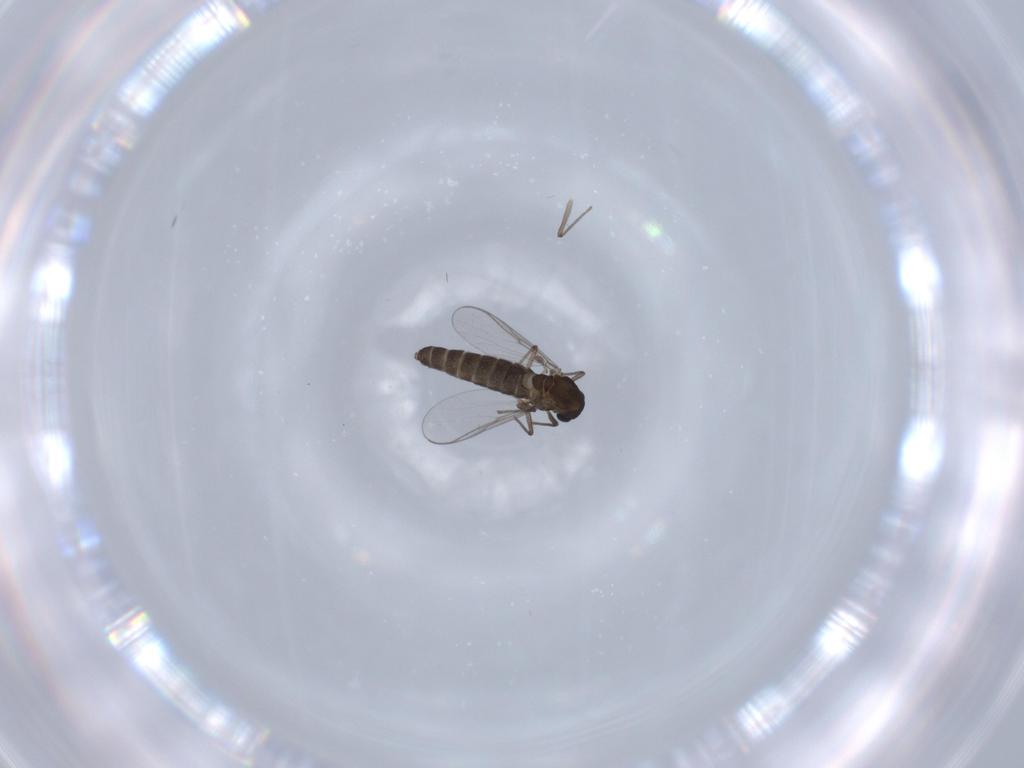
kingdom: Animalia
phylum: Arthropoda
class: Insecta
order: Diptera
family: Chironomidae
